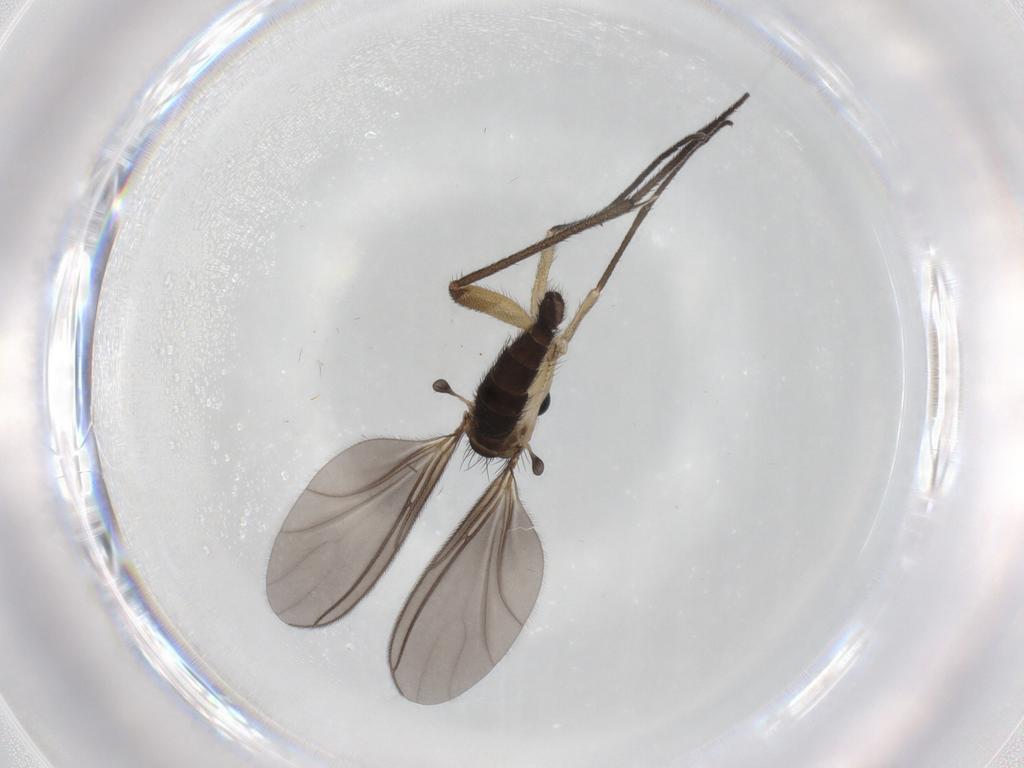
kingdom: Animalia
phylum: Arthropoda
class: Insecta
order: Diptera
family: Sciaridae
